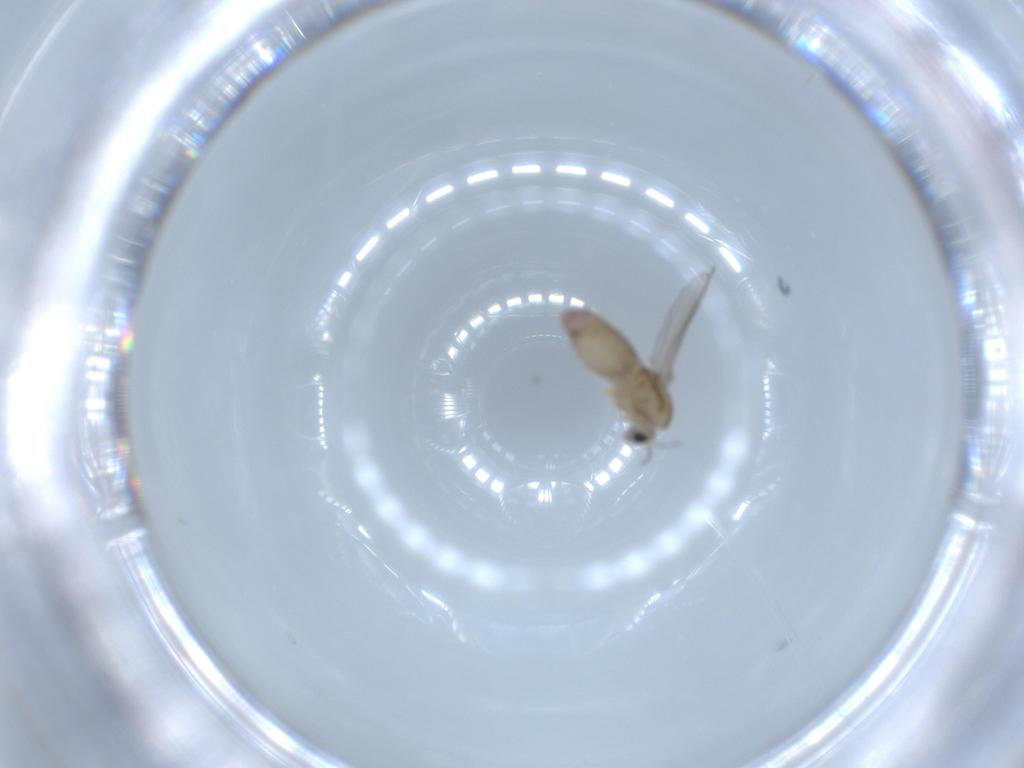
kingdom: Animalia
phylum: Arthropoda
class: Insecta
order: Diptera
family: Chironomidae
